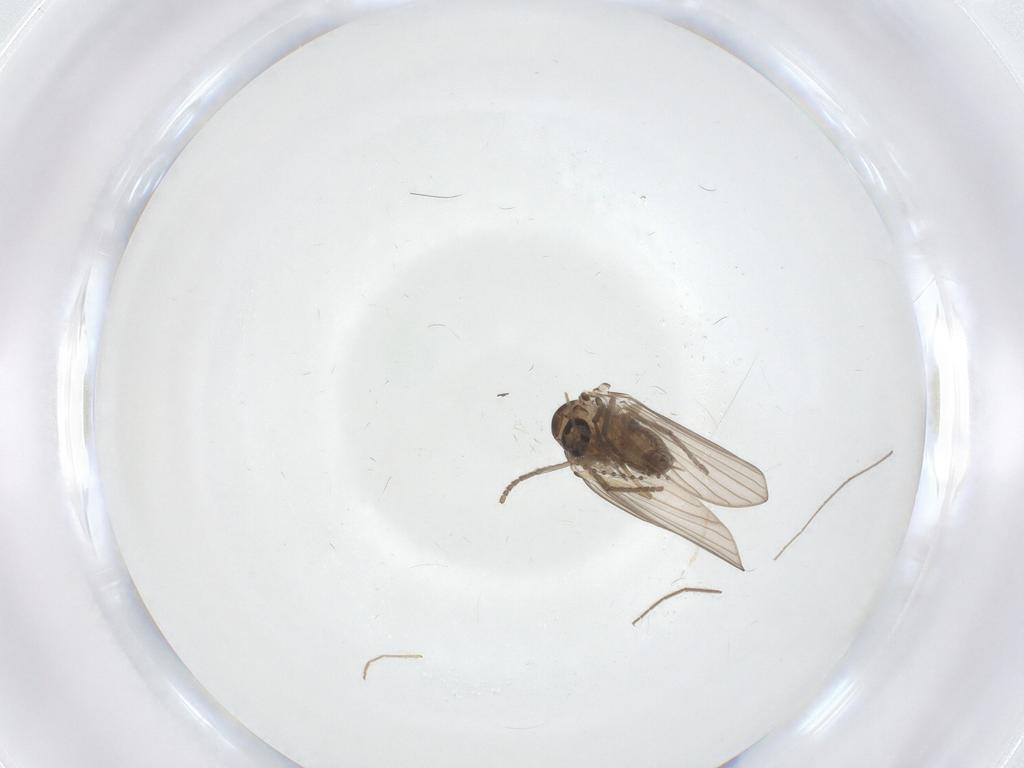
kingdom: Animalia
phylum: Arthropoda
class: Insecta
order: Diptera
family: Chironomidae
